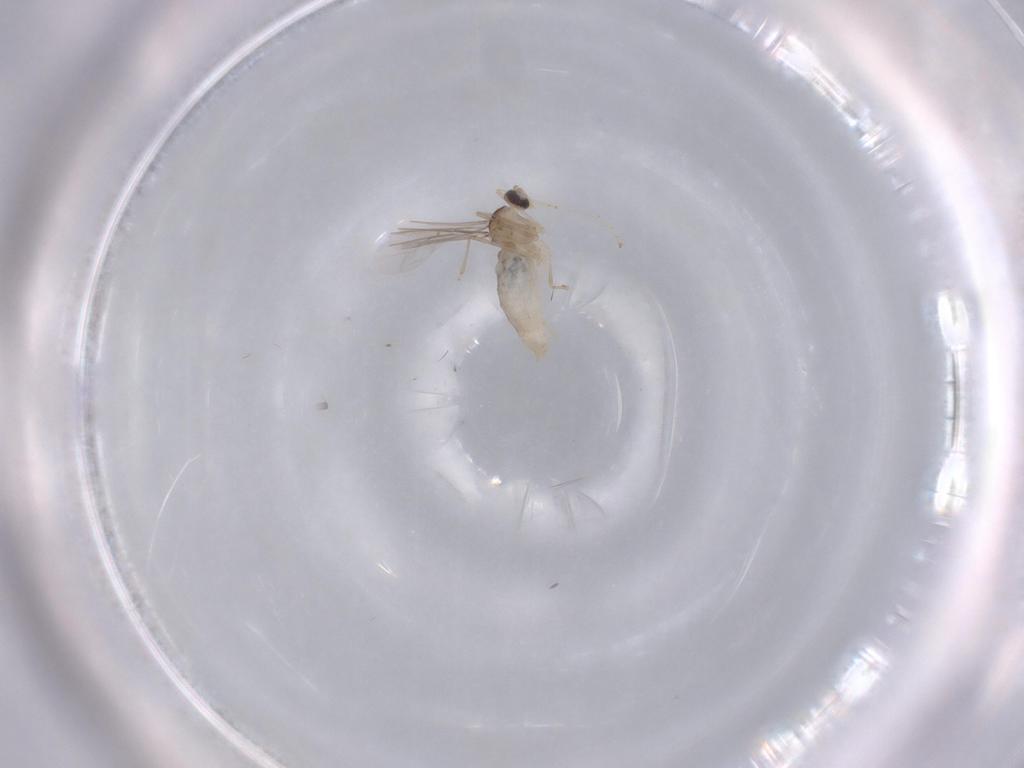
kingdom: Animalia
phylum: Arthropoda
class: Insecta
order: Diptera
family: Cecidomyiidae
